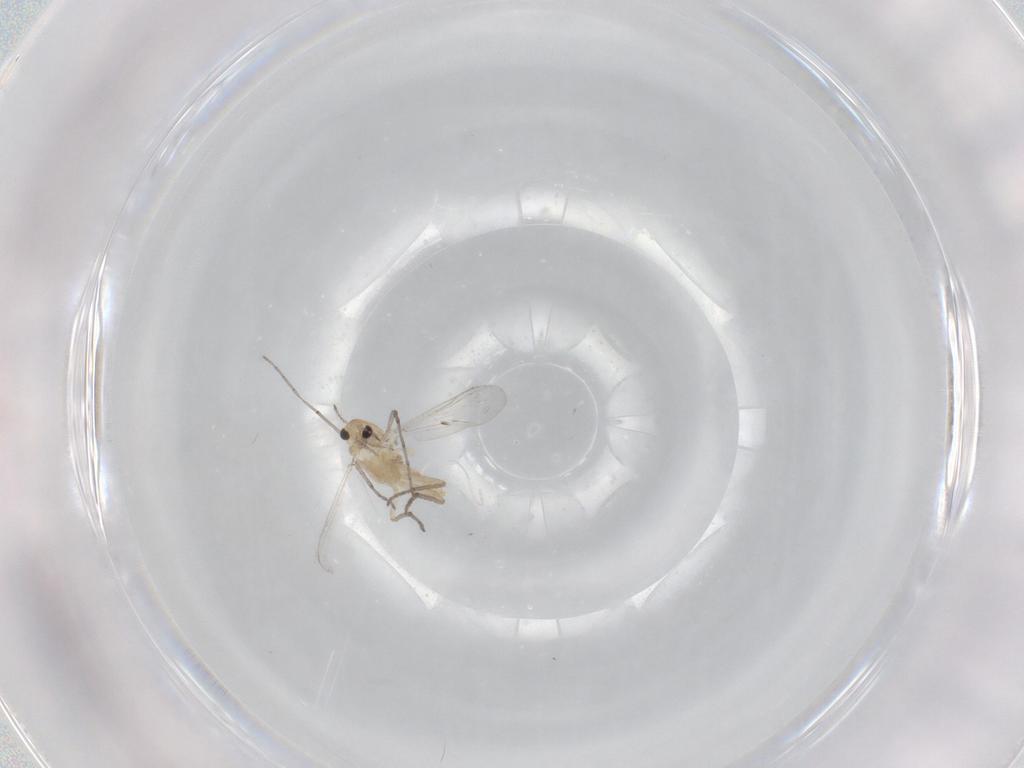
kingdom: Animalia
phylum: Arthropoda
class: Insecta
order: Diptera
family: Chironomidae
